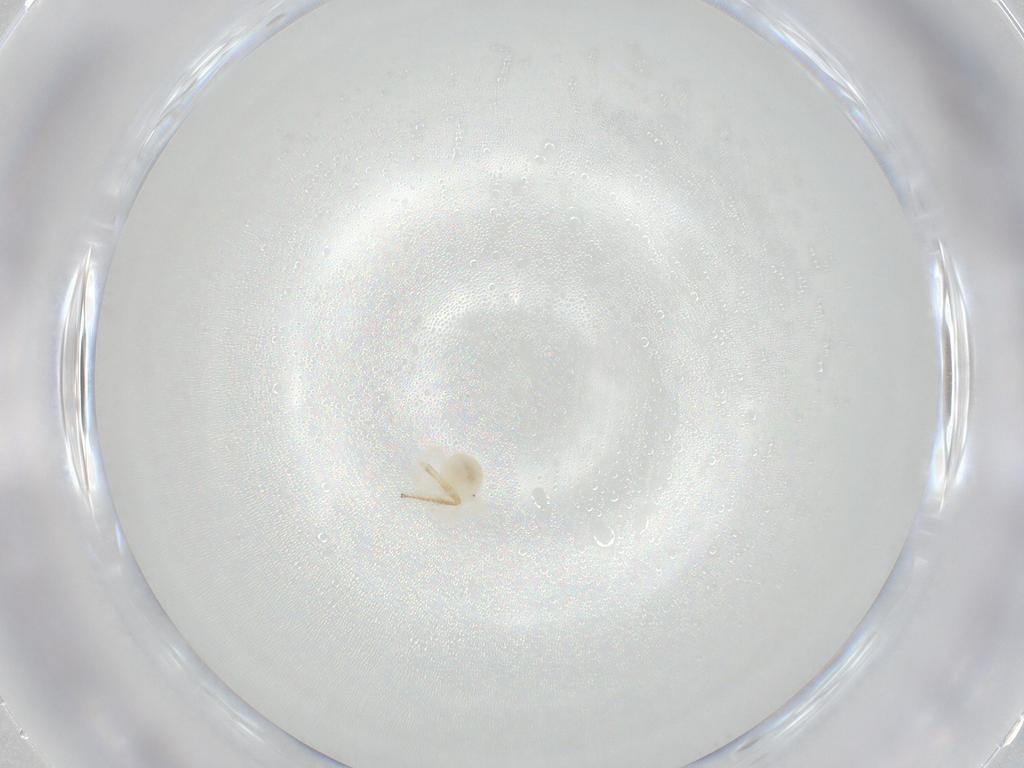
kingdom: Animalia
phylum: Arthropoda
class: Arachnida
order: Trombidiformes
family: Anystidae
